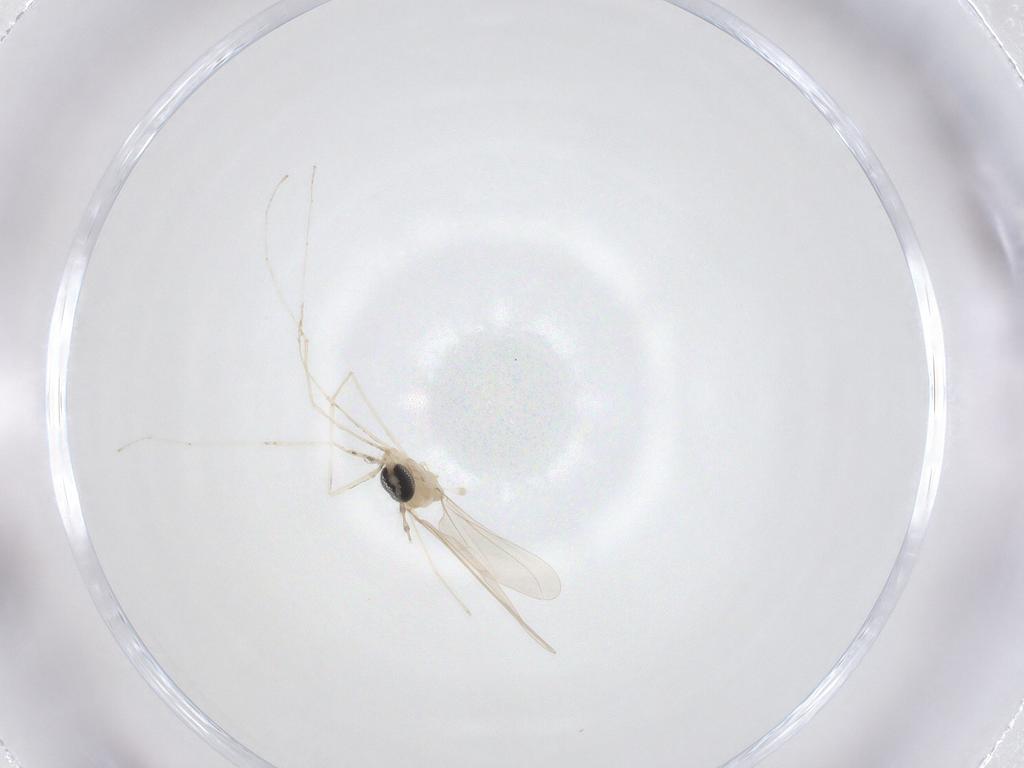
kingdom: Animalia
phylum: Arthropoda
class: Insecta
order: Diptera
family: Cecidomyiidae
